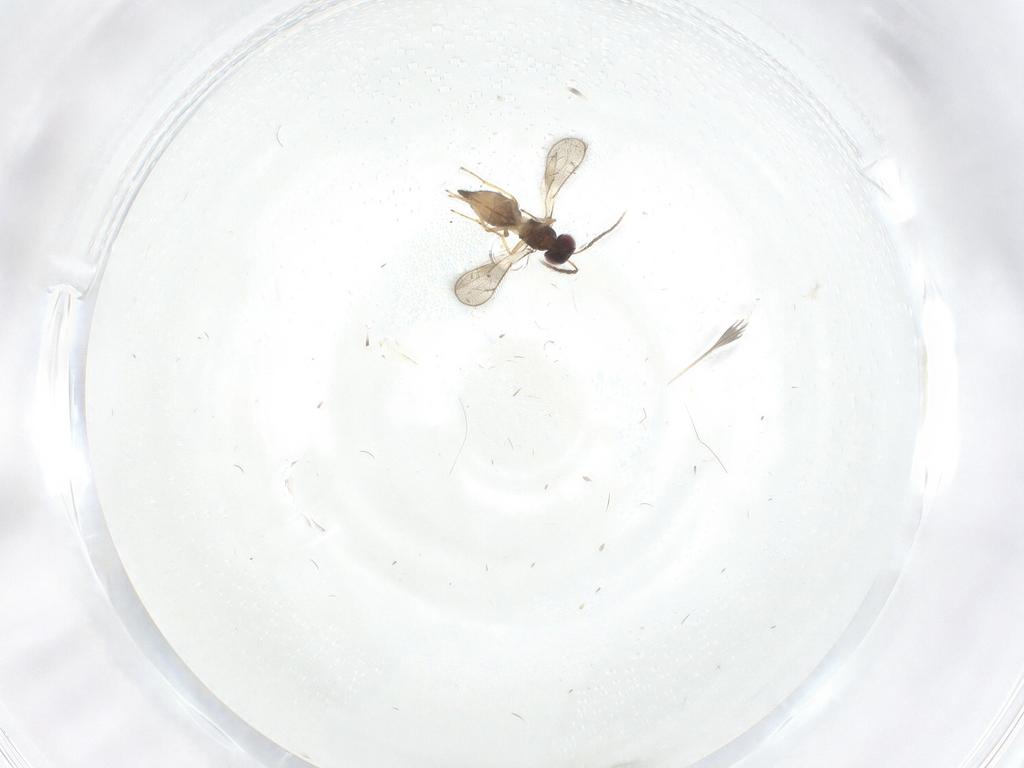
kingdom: Animalia
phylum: Arthropoda
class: Insecta
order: Hymenoptera
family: Eulophidae
